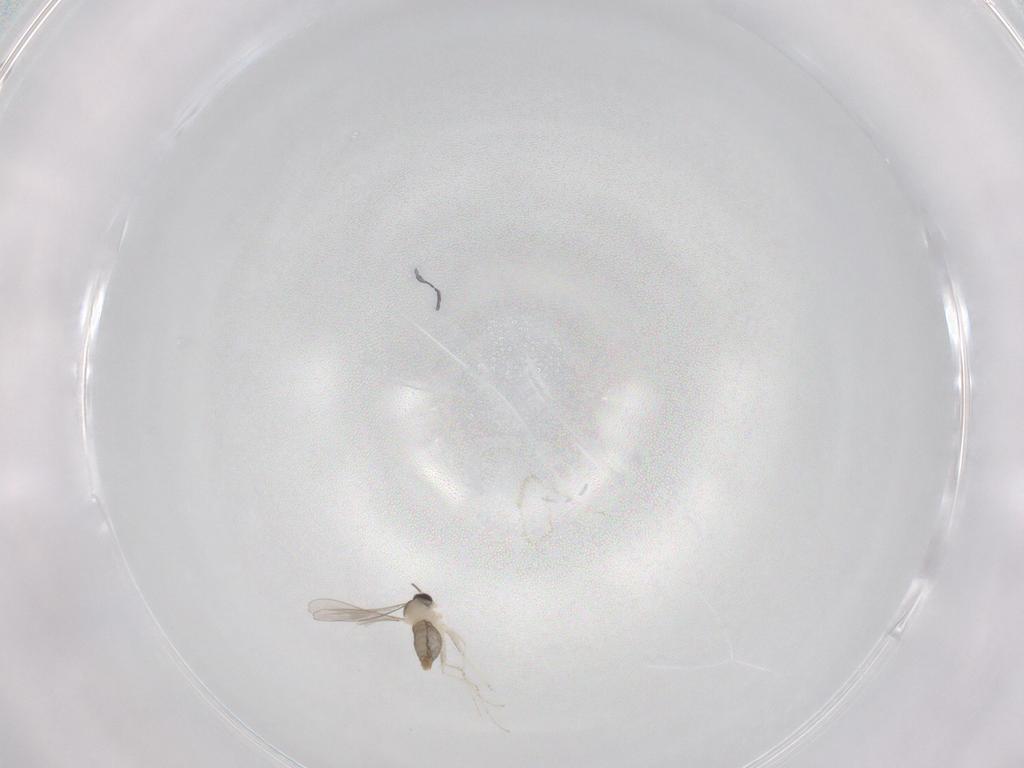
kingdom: Animalia
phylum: Arthropoda
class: Insecta
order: Diptera
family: Cecidomyiidae
